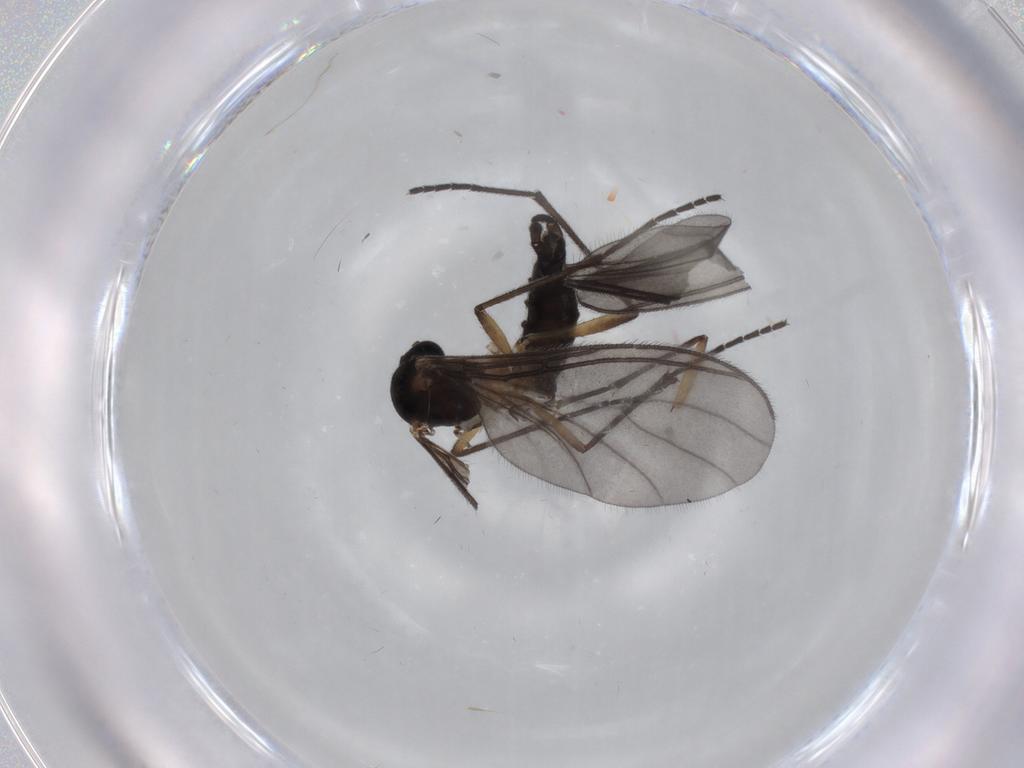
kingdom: Animalia
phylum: Arthropoda
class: Insecta
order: Diptera
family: Sciaridae
